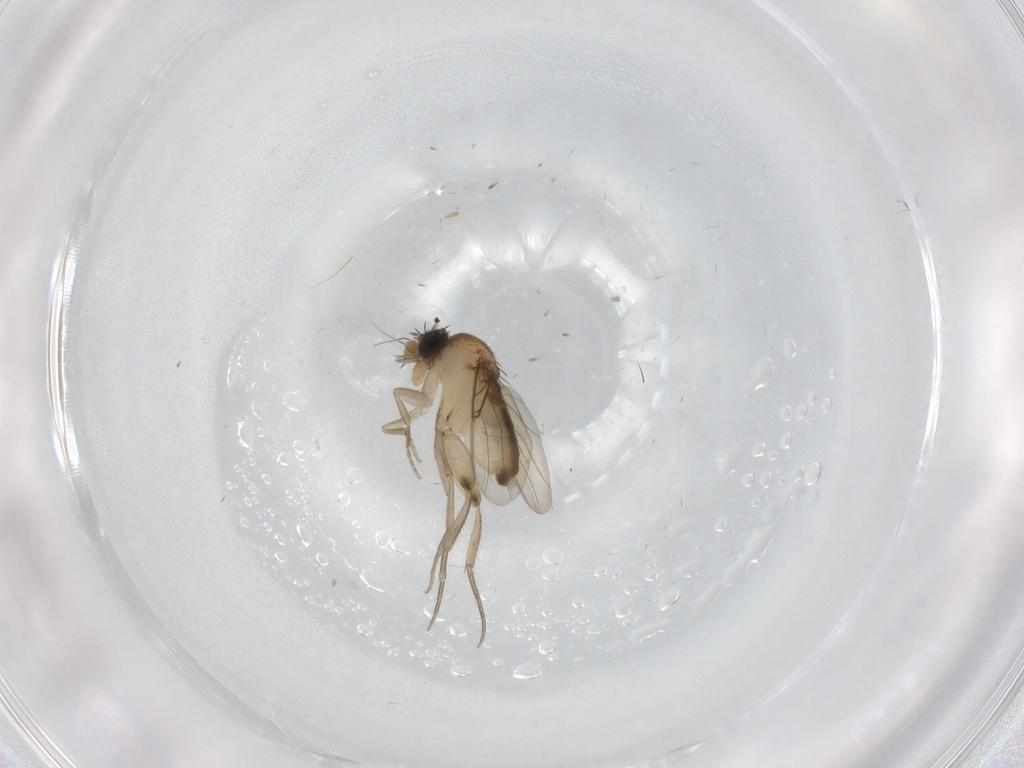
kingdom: Animalia
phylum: Arthropoda
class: Insecta
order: Diptera
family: Phoridae
